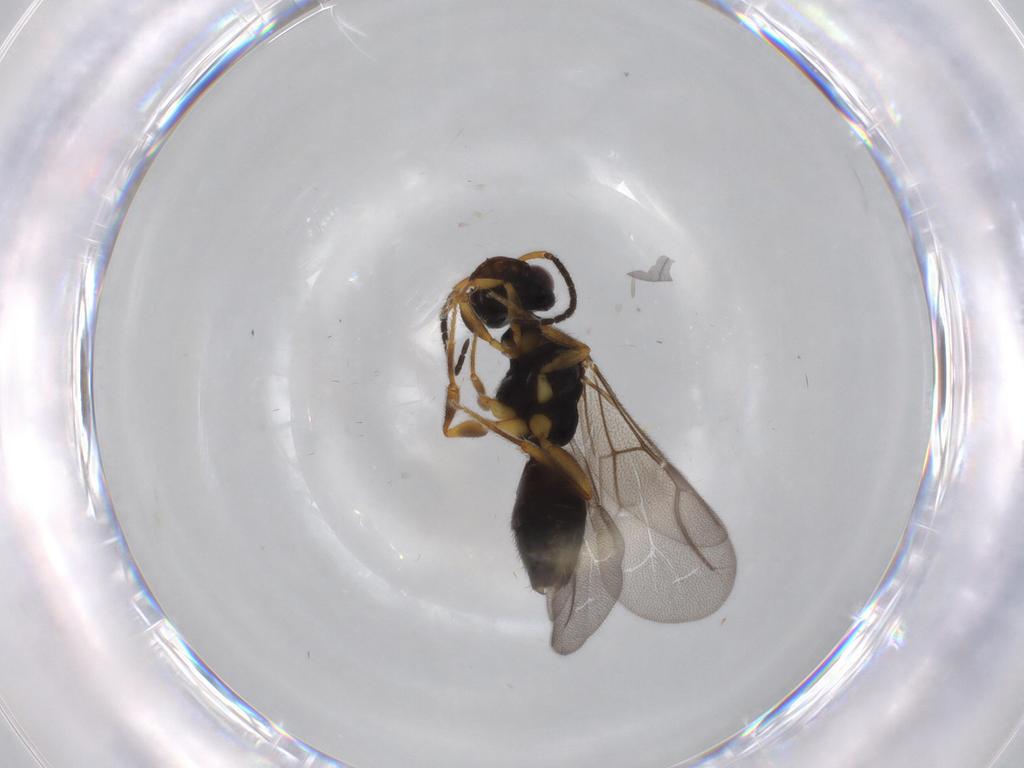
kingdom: Animalia
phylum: Arthropoda
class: Insecta
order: Hymenoptera
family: Bethylidae
